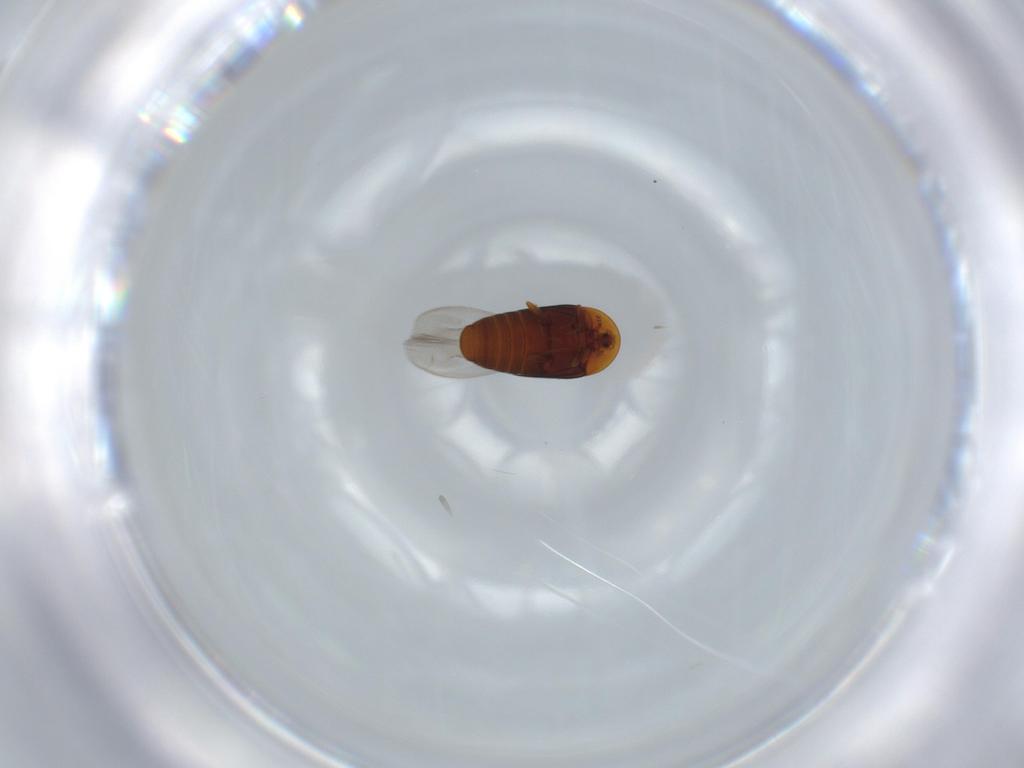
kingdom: Animalia
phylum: Arthropoda
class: Insecta
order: Coleoptera
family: Corylophidae
